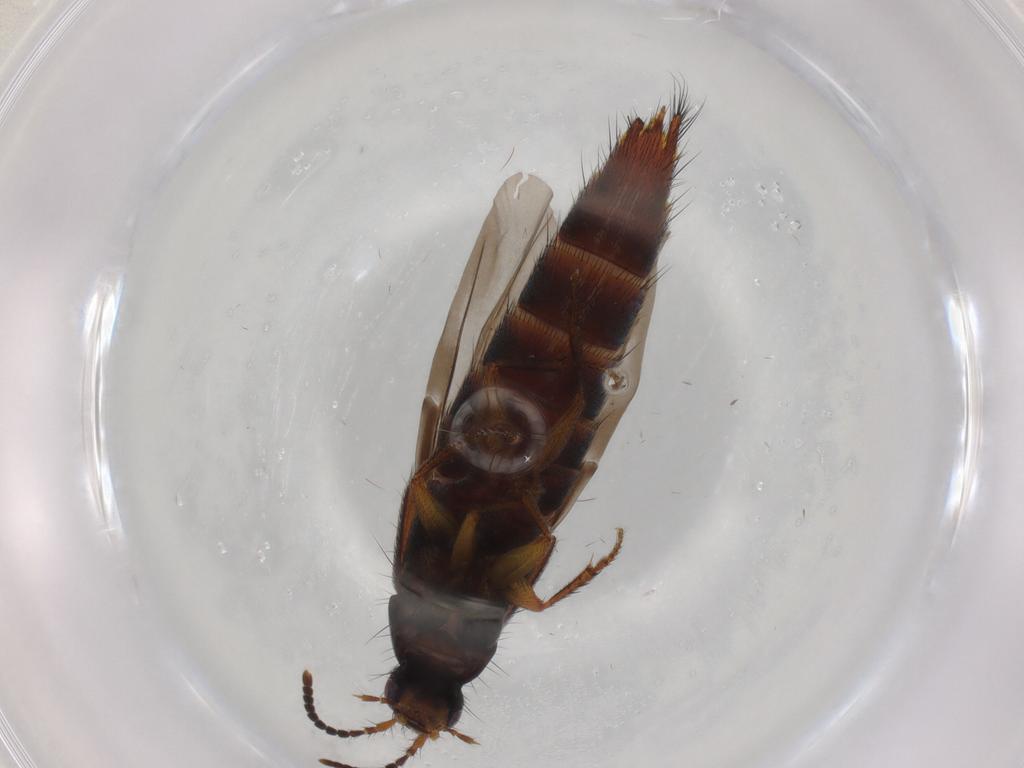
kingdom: Animalia
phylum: Arthropoda
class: Insecta
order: Coleoptera
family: Staphylinidae
